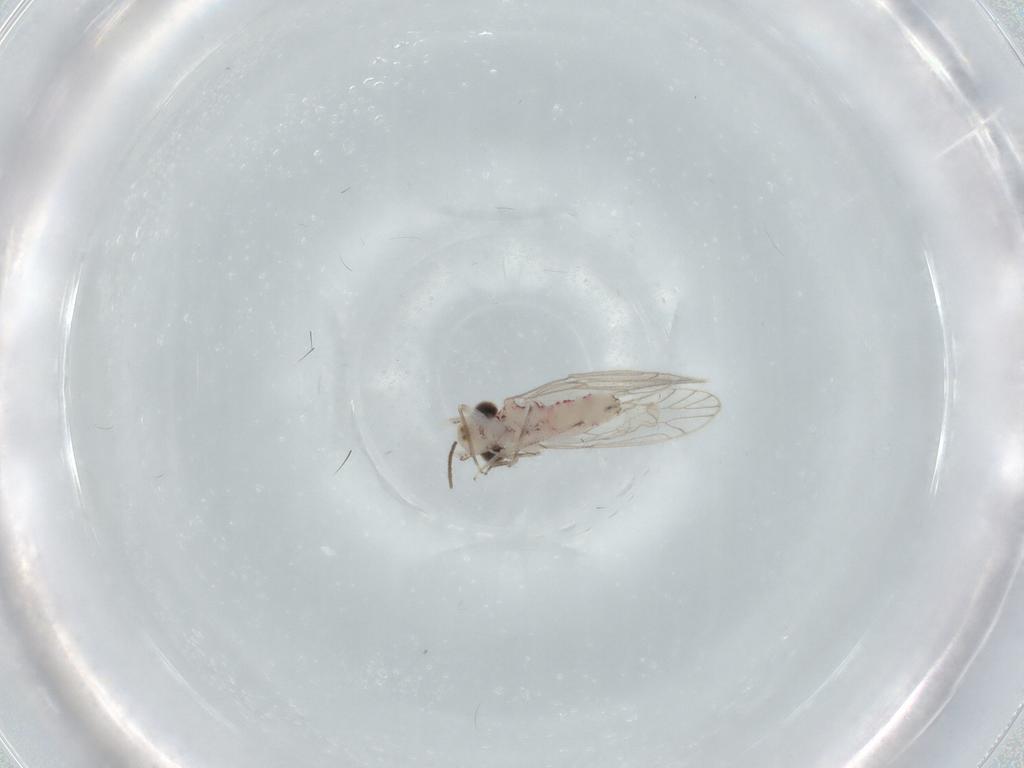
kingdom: Animalia
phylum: Arthropoda
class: Insecta
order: Psocodea
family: Caeciliusidae
